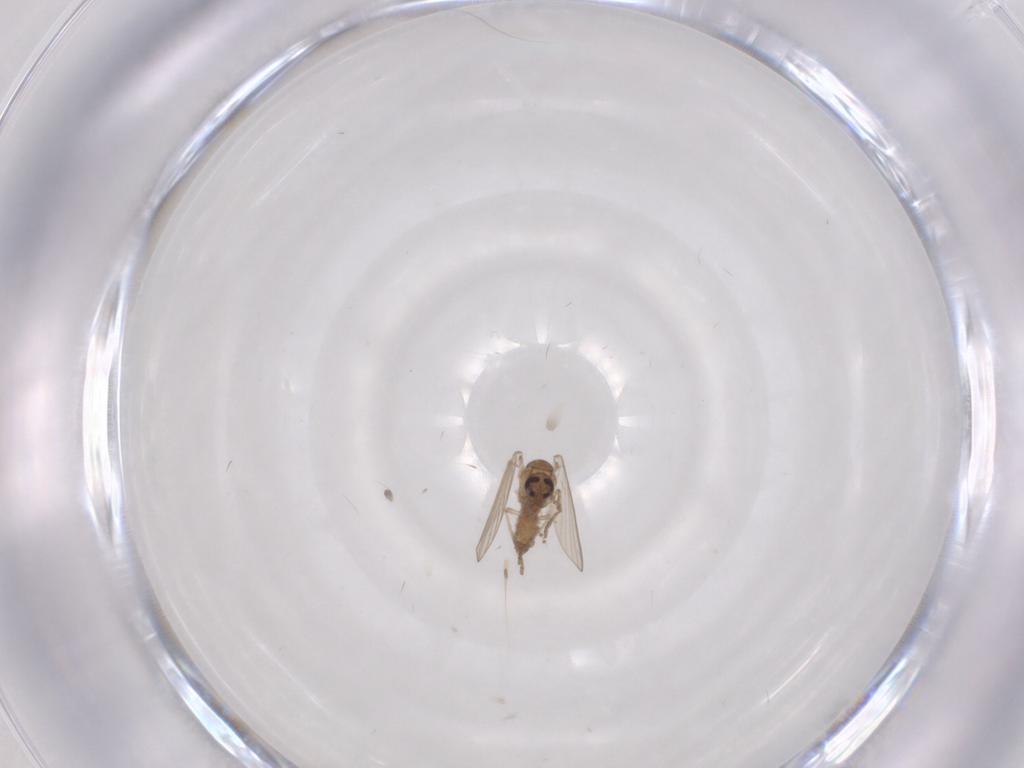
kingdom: Animalia
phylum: Arthropoda
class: Insecta
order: Diptera
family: Psychodidae
